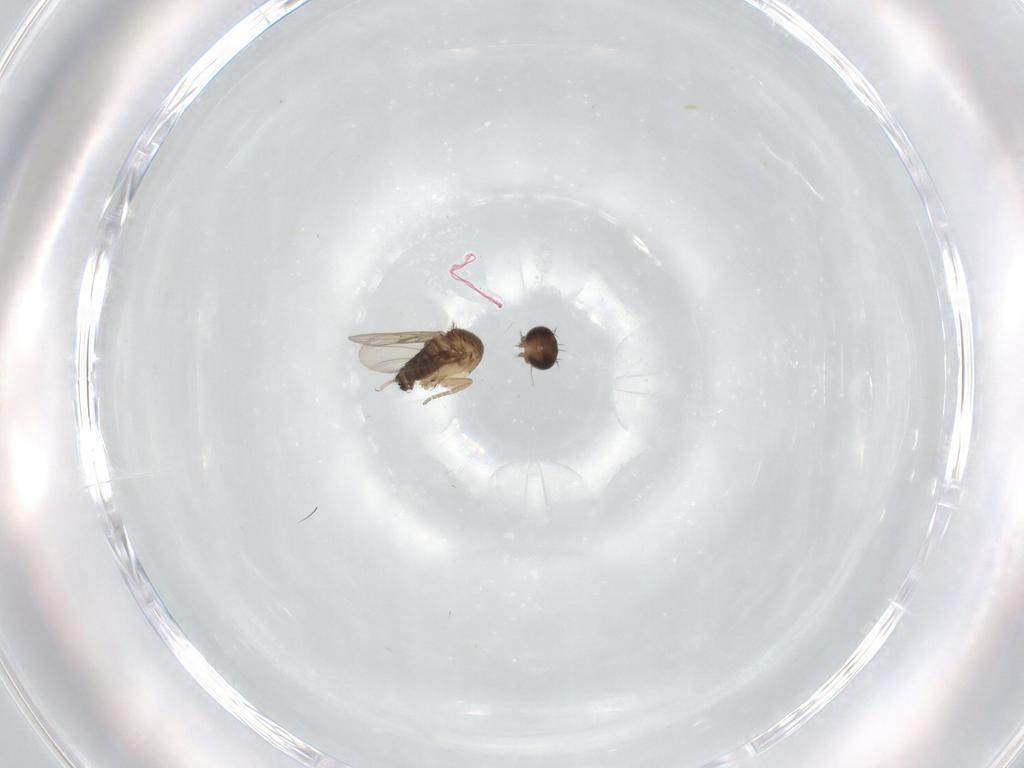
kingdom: Animalia
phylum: Arthropoda
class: Insecta
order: Diptera
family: Phoridae
